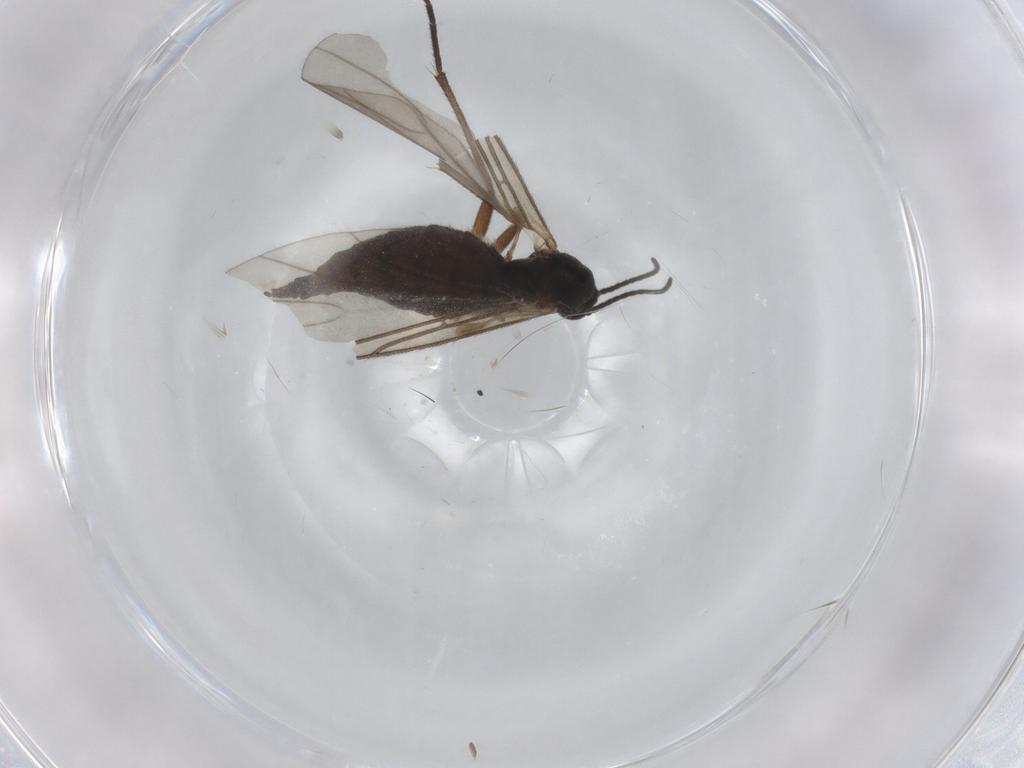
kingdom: Animalia
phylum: Arthropoda
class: Insecta
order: Diptera
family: Sciaridae
